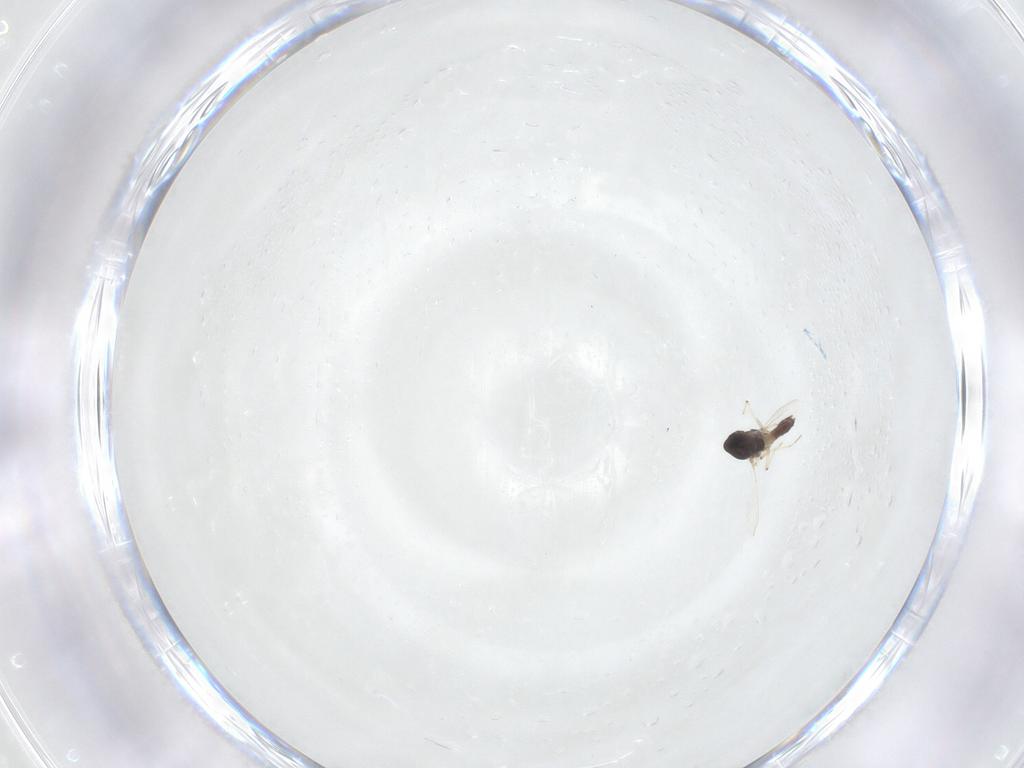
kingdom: Animalia
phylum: Arthropoda
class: Insecta
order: Diptera
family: Chironomidae
